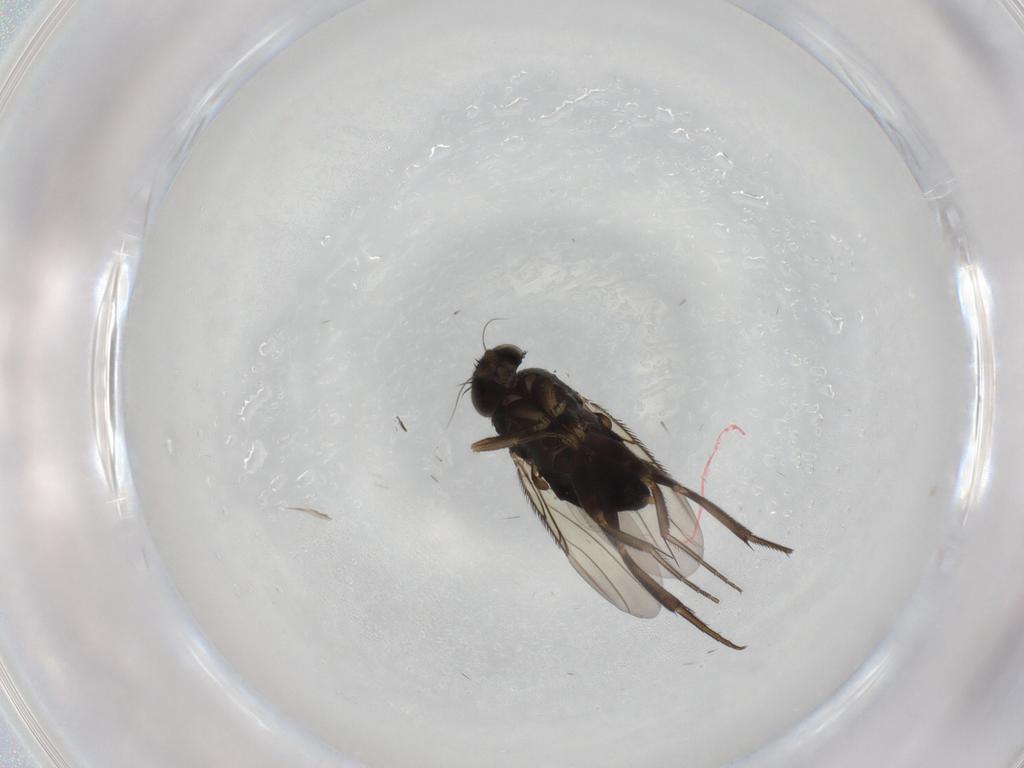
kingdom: Animalia
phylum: Arthropoda
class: Insecta
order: Diptera
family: Phoridae
